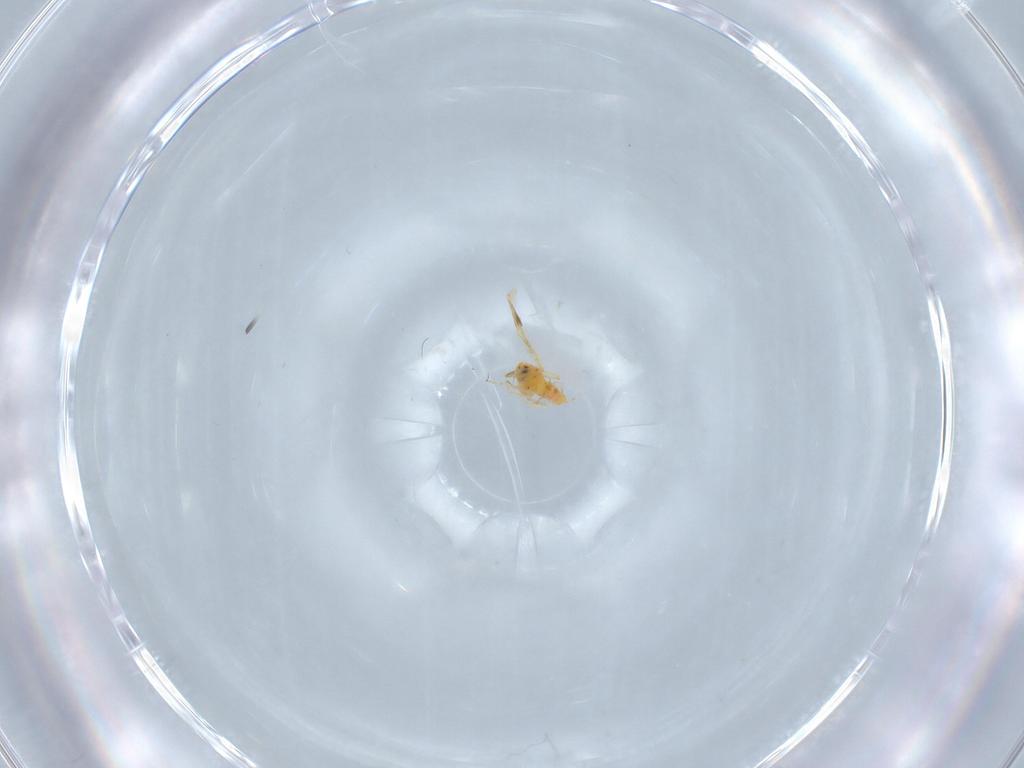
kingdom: Animalia
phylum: Arthropoda
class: Insecta
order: Hemiptera
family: Aleyrodidae
